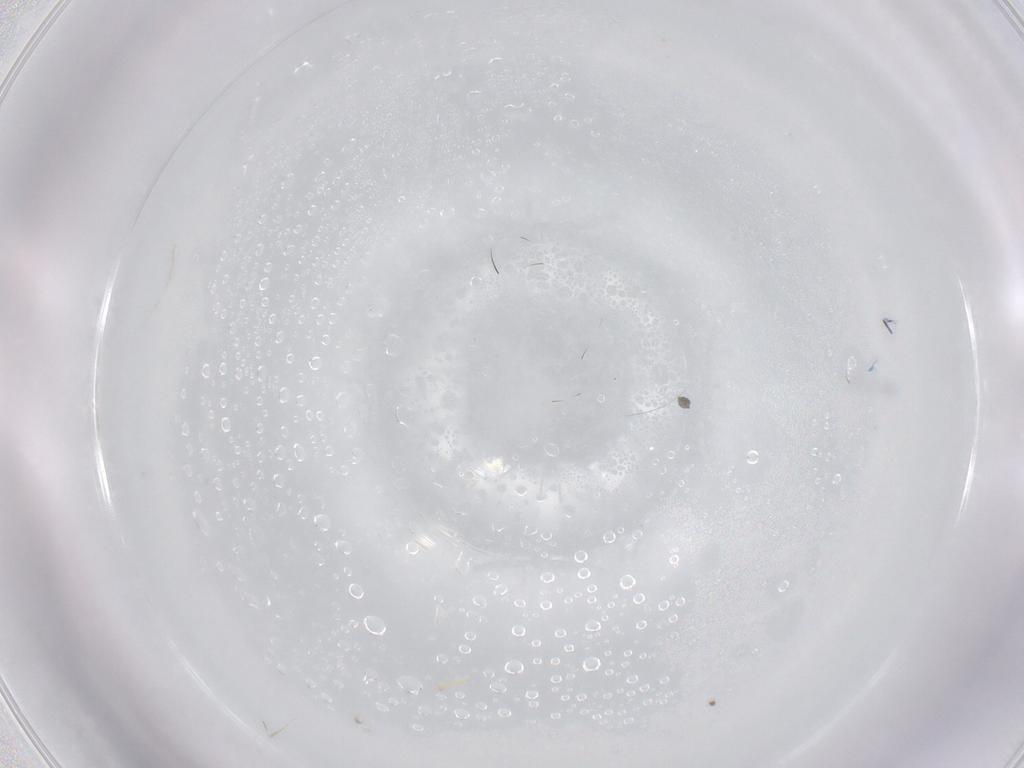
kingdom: Animalia
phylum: Arthropoda
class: Insecta
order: Diptera
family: Chironomidae
